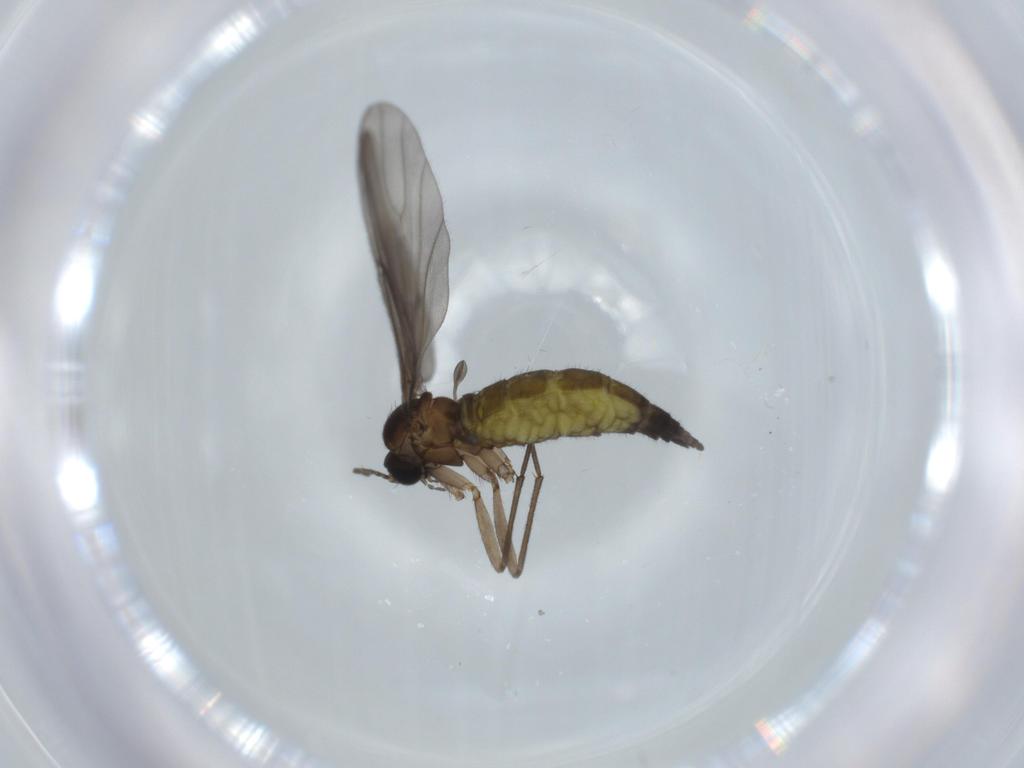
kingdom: Animalia
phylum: Arthropoda
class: Insecta
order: Diptera
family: Sciaridae
